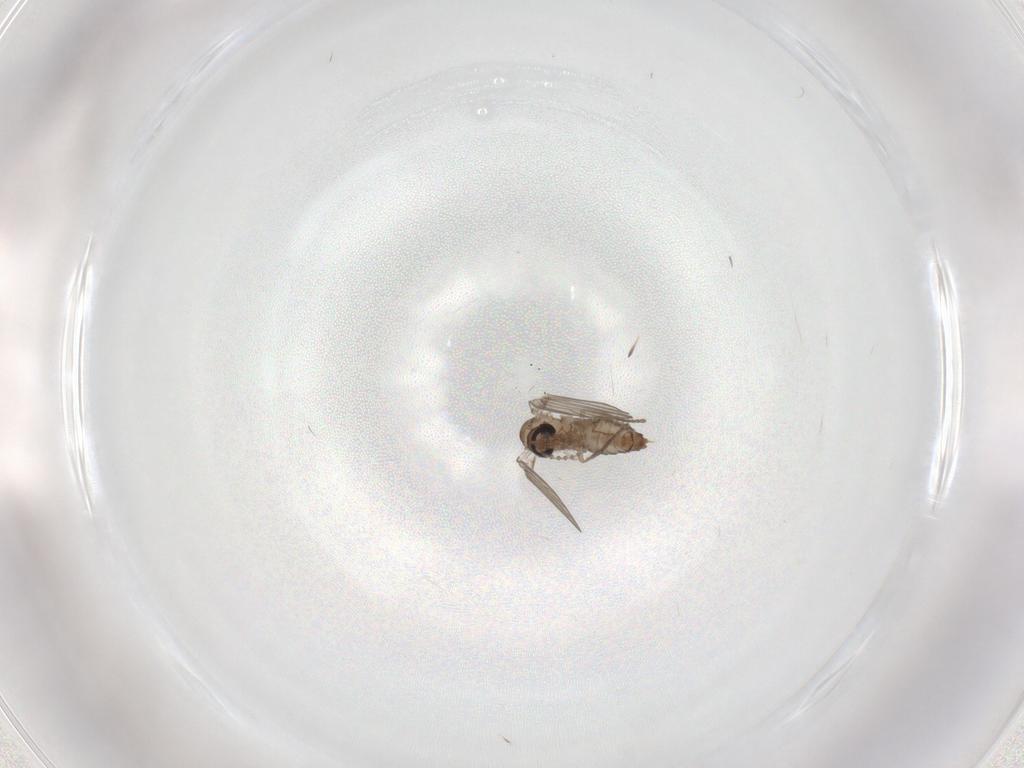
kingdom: Animalia
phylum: Arthropoda
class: Insecta
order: Diptera
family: Psychodidae
